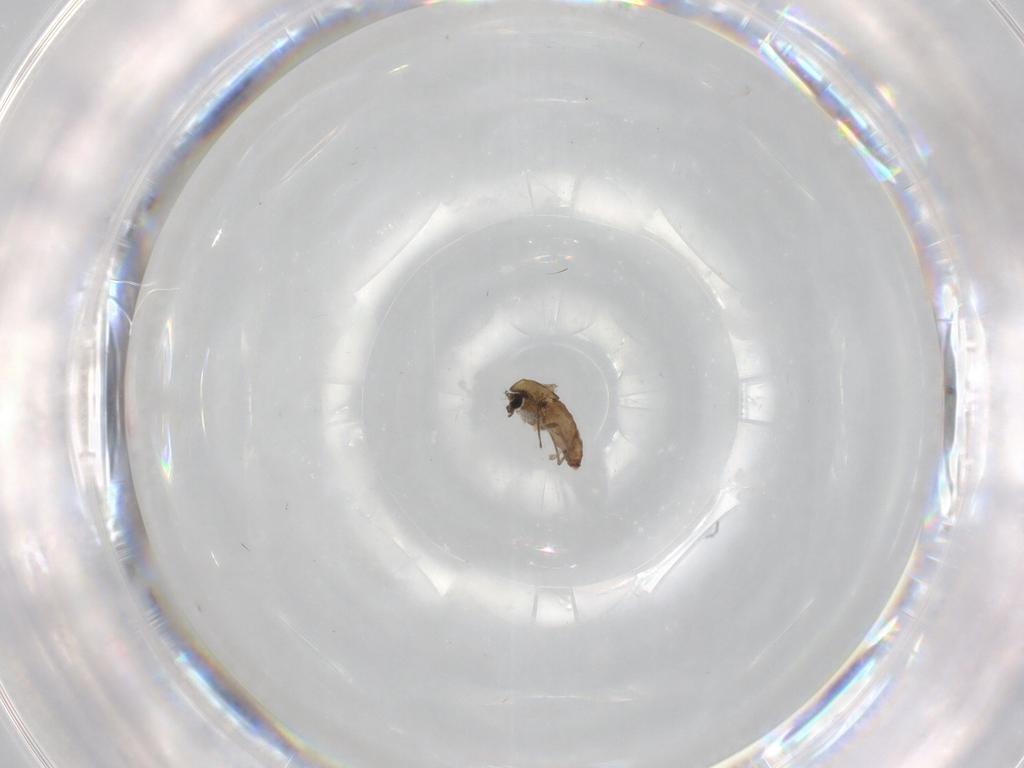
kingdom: Animalia
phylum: Arthropoda
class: Insecta
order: Diptera
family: Chironomidae
